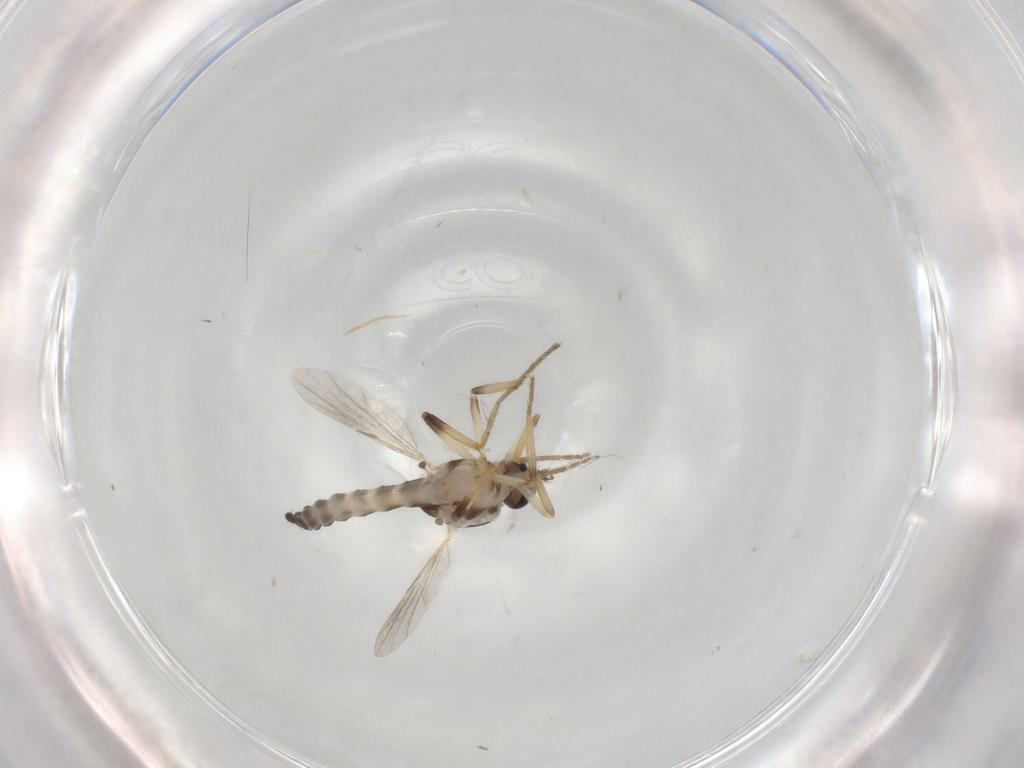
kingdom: Animalia
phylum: Arthropoda
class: Insecta
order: Diptera
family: Ceratopogonidae
